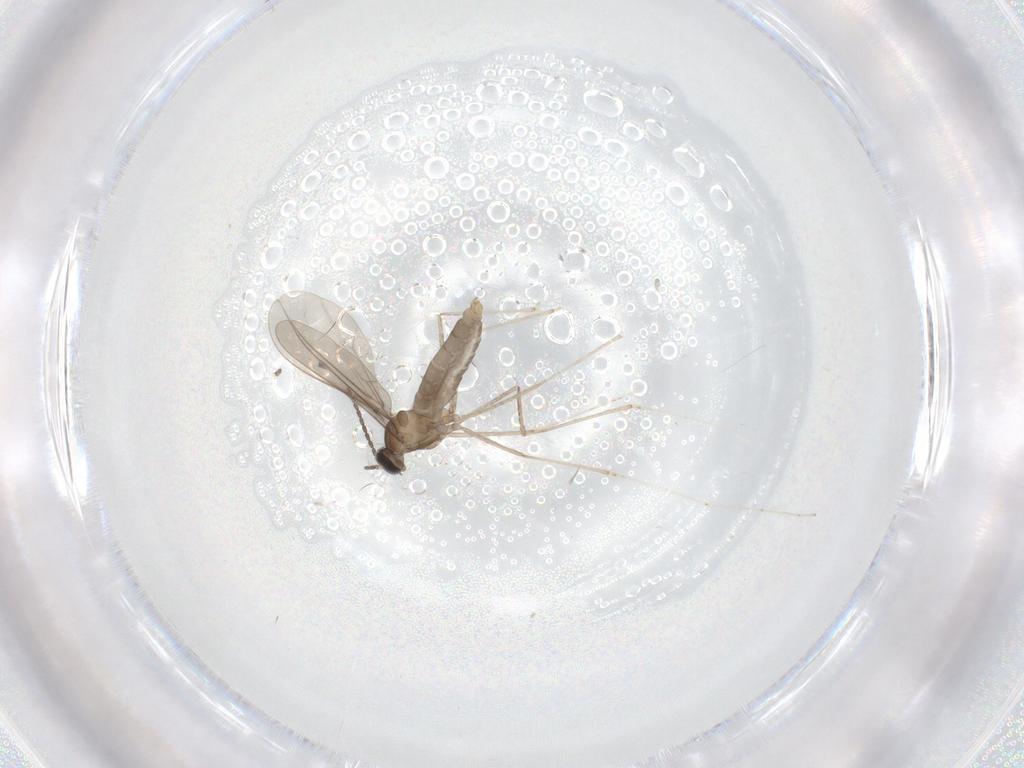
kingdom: Animalia
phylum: Arthropoda
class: Insecta
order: Diptera
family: Cecidomyiidae
